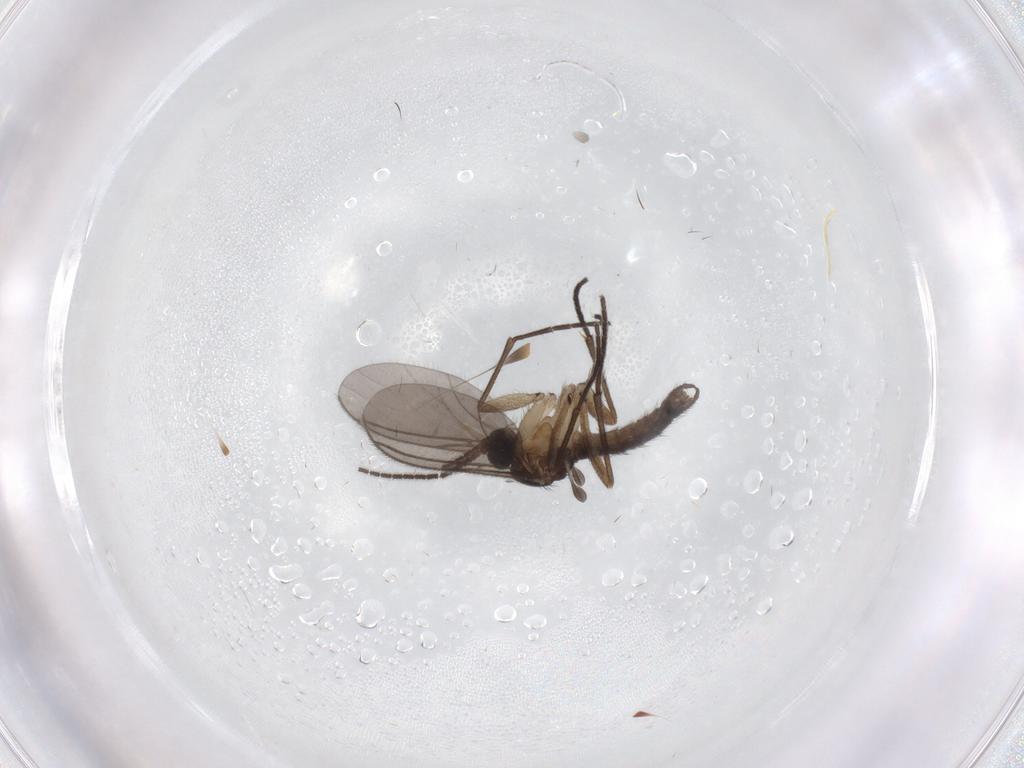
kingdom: Animalia
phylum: Arthropoda
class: Insecta
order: Diptera
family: Sciaridae
